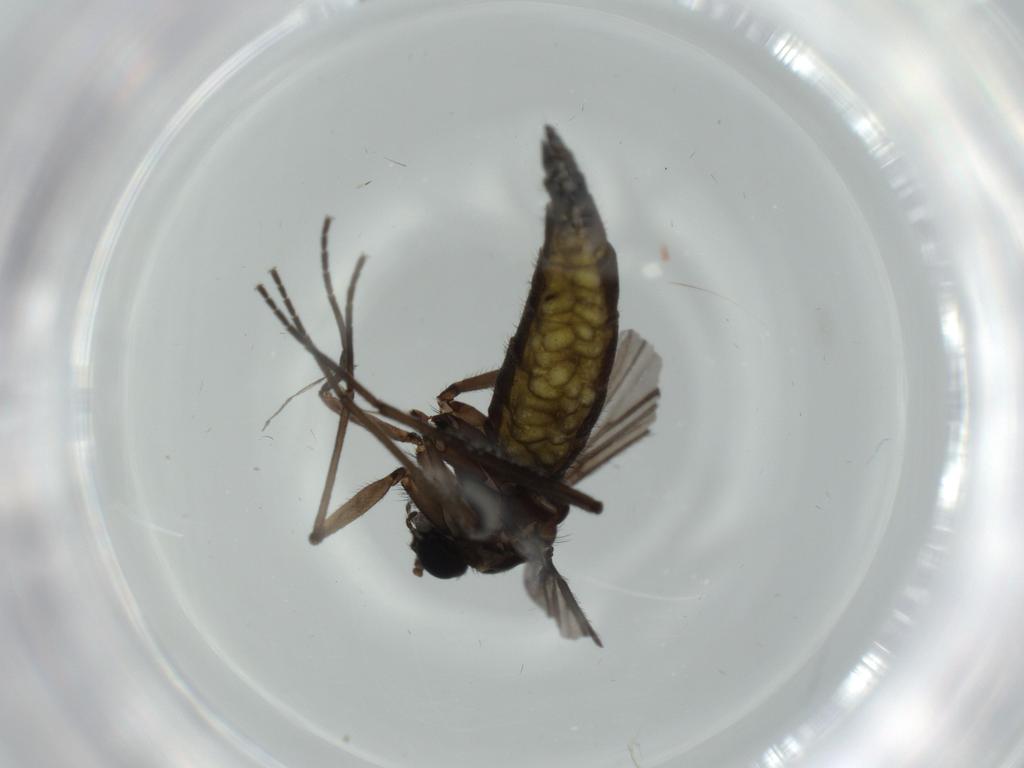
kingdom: Animalia
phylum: Arthropoda
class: Insecta
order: Diptera
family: Sciaridae
